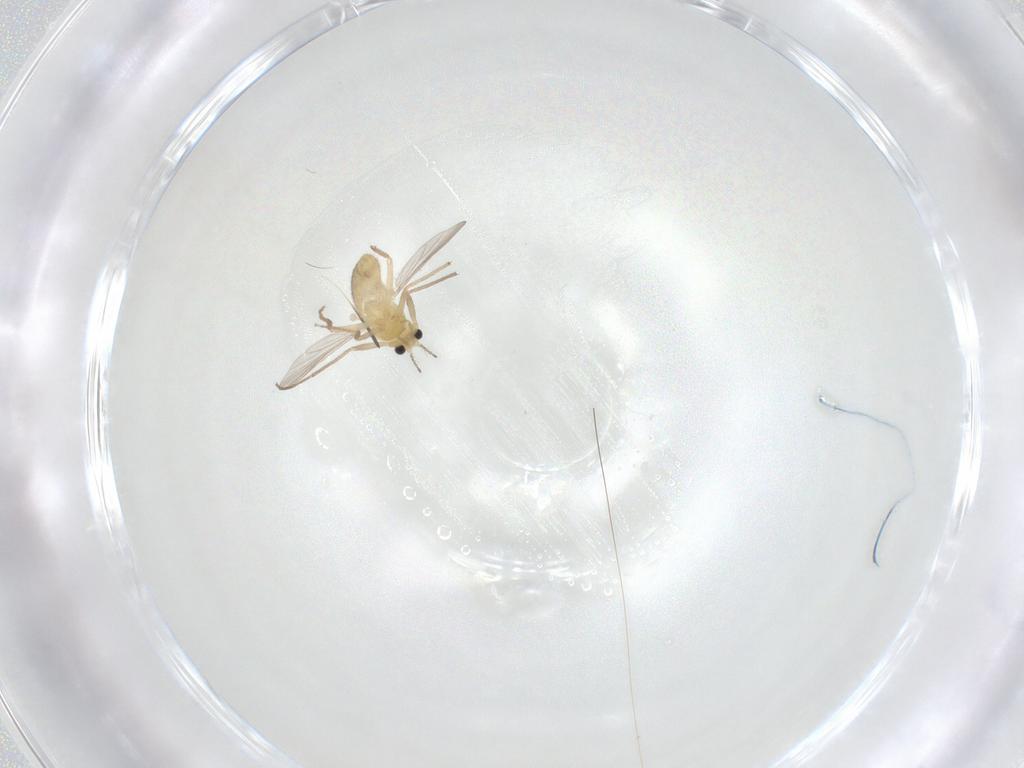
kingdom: Animalia
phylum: Arthropoda
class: Insecta
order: Diptera
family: Chironomidae
